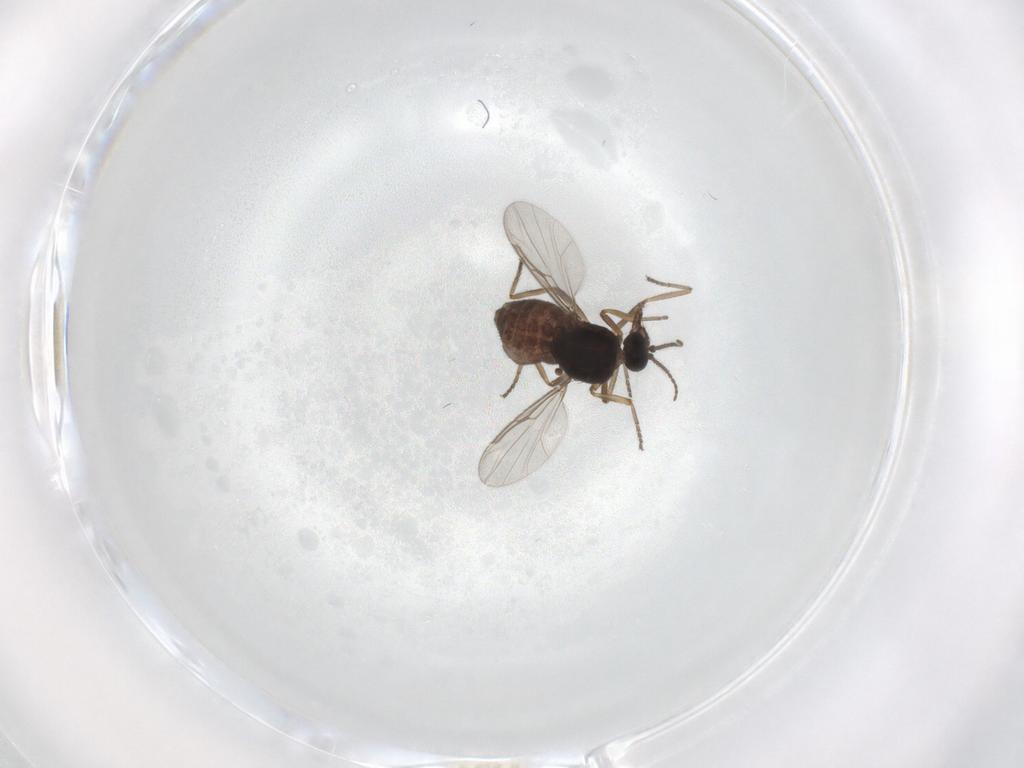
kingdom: Animalia
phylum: Arthropoda
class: Insecta
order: Diptera
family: Ceratopogonidae
